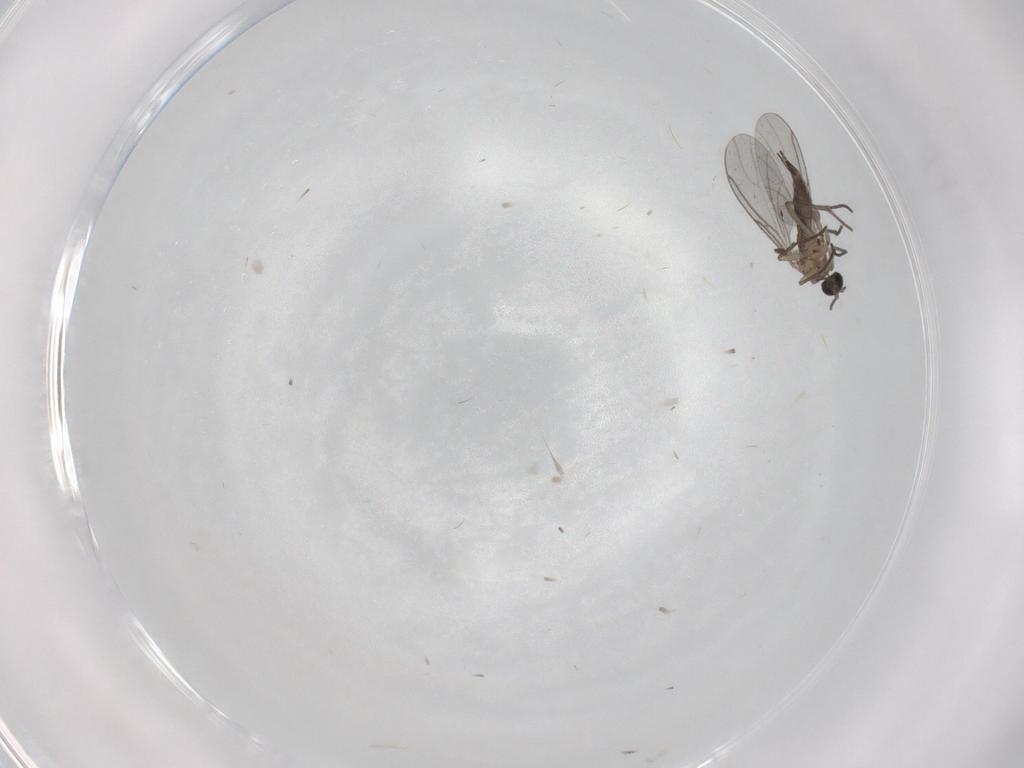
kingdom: Animalia
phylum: Arthropoda
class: Insecta
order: Diptera
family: Sciaridae
